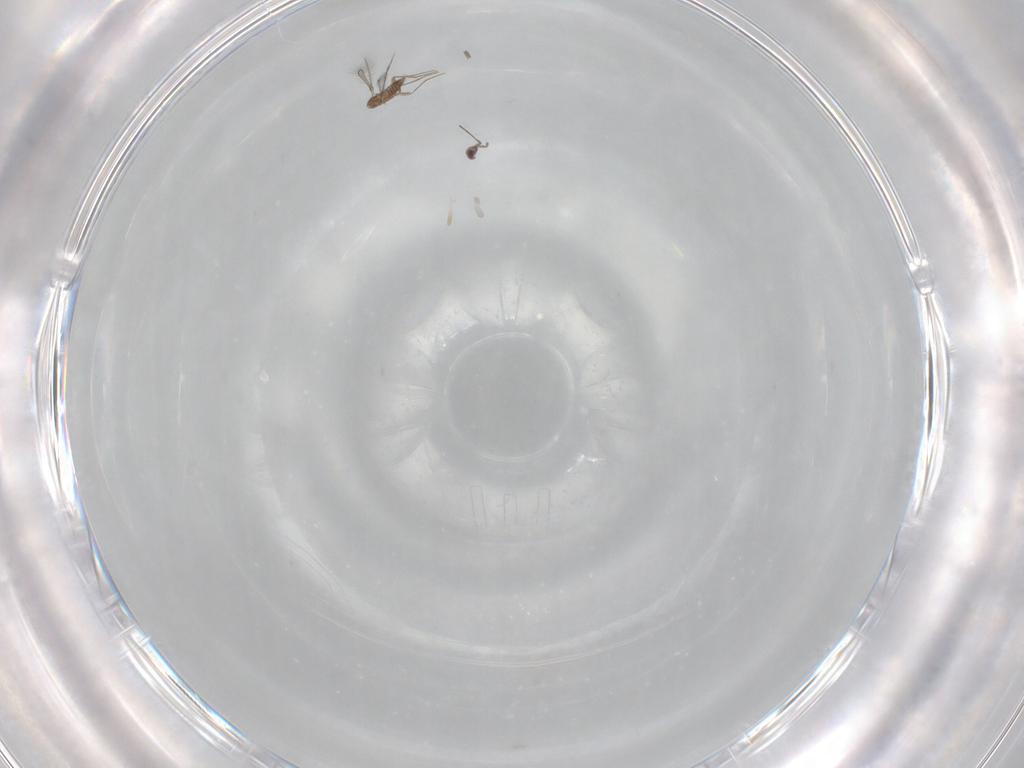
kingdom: Animalia
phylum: Arthropoda
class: Insecta
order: Hymenoptera
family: Mymaridae
